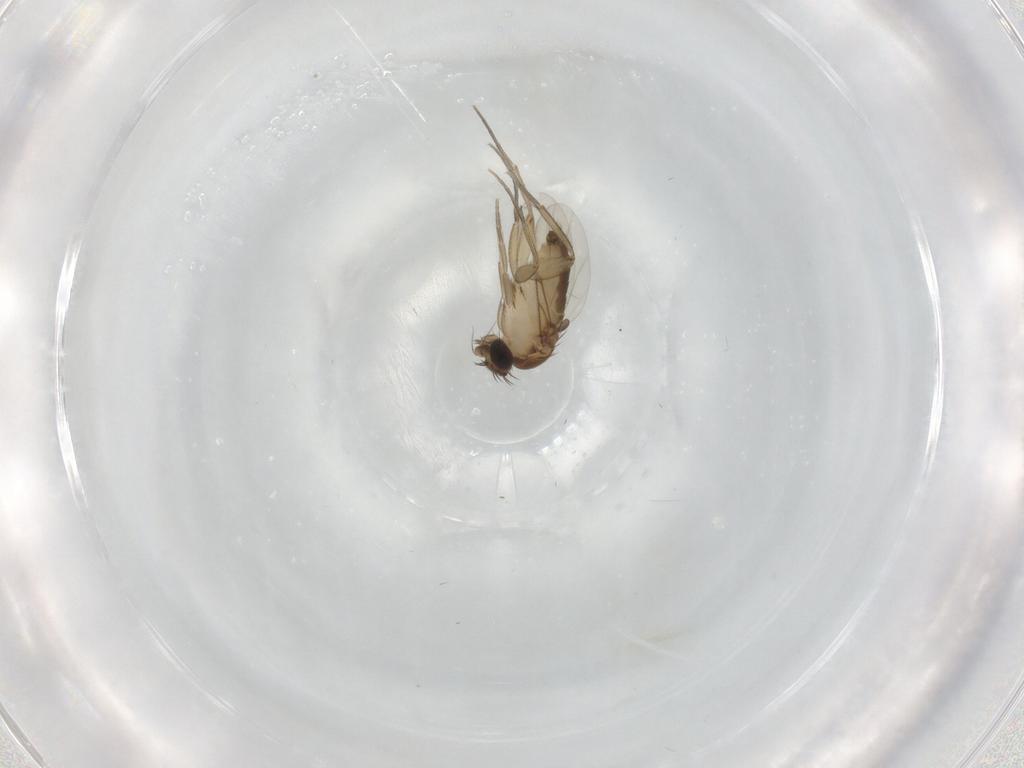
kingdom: Animalia
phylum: Arthropoda
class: Insecta
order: Diptera
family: Phoridae
